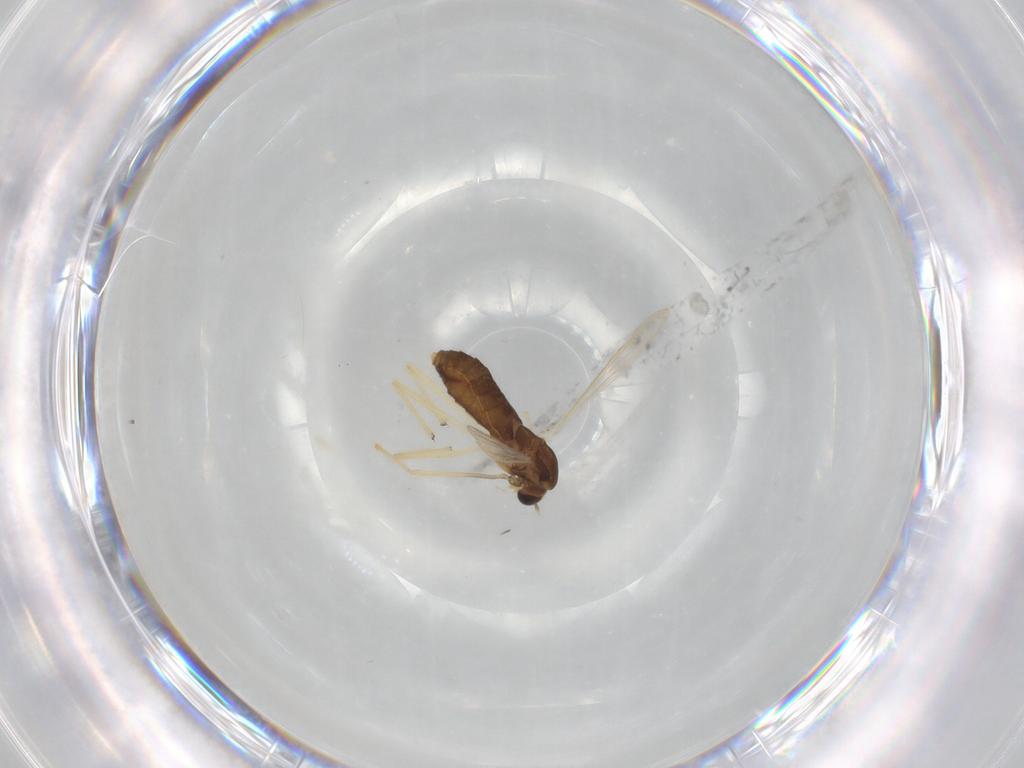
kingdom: Animalia
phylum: Arthropoda
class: Insecta
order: Diptera
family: Chironomidae
